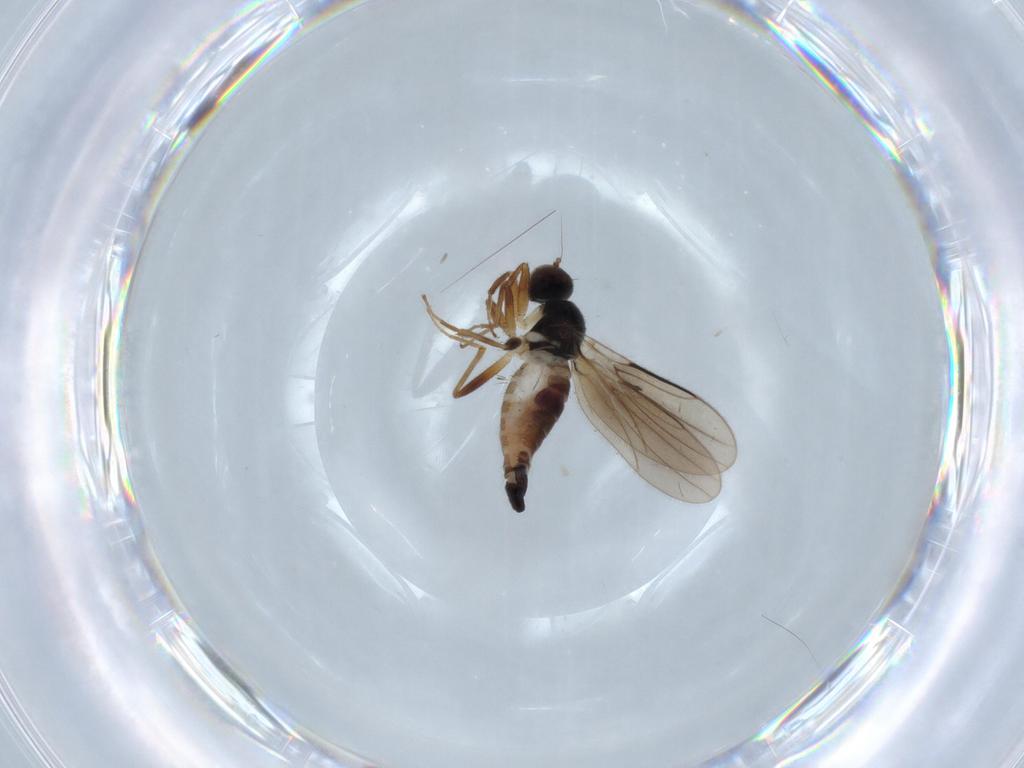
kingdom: Animalia
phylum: Arthropoda
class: Insecta
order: Diptera
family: Hybotidae
